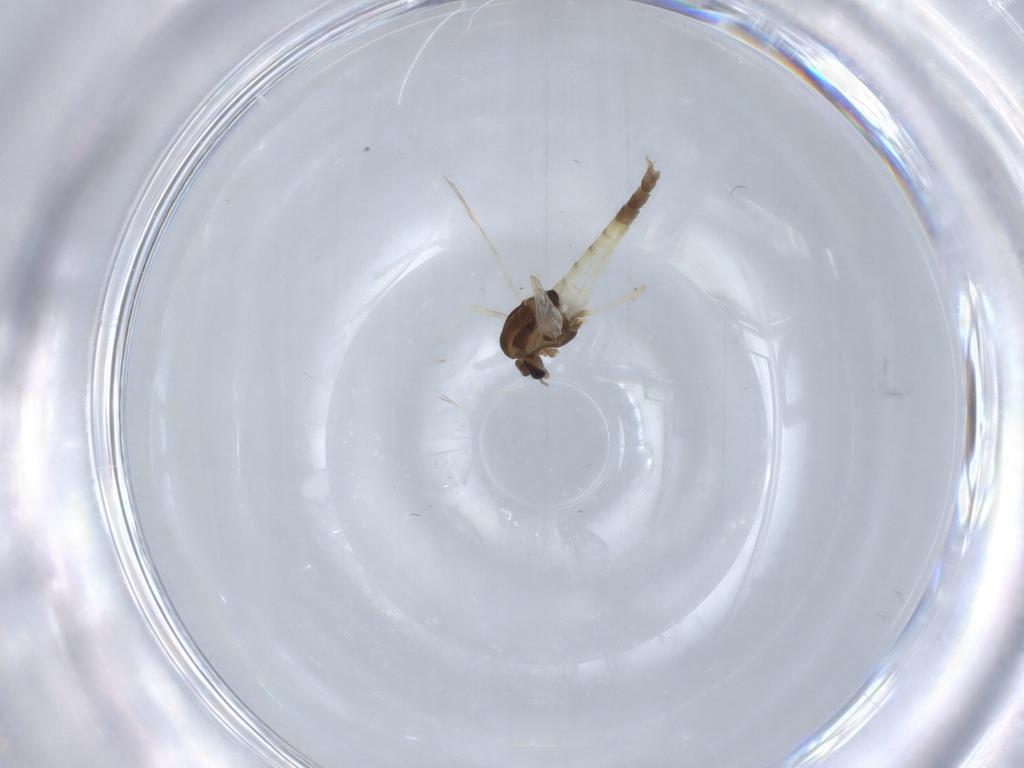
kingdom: Animalia
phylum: Arthropoda
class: Insecta
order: Diptera
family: Chironomidae
